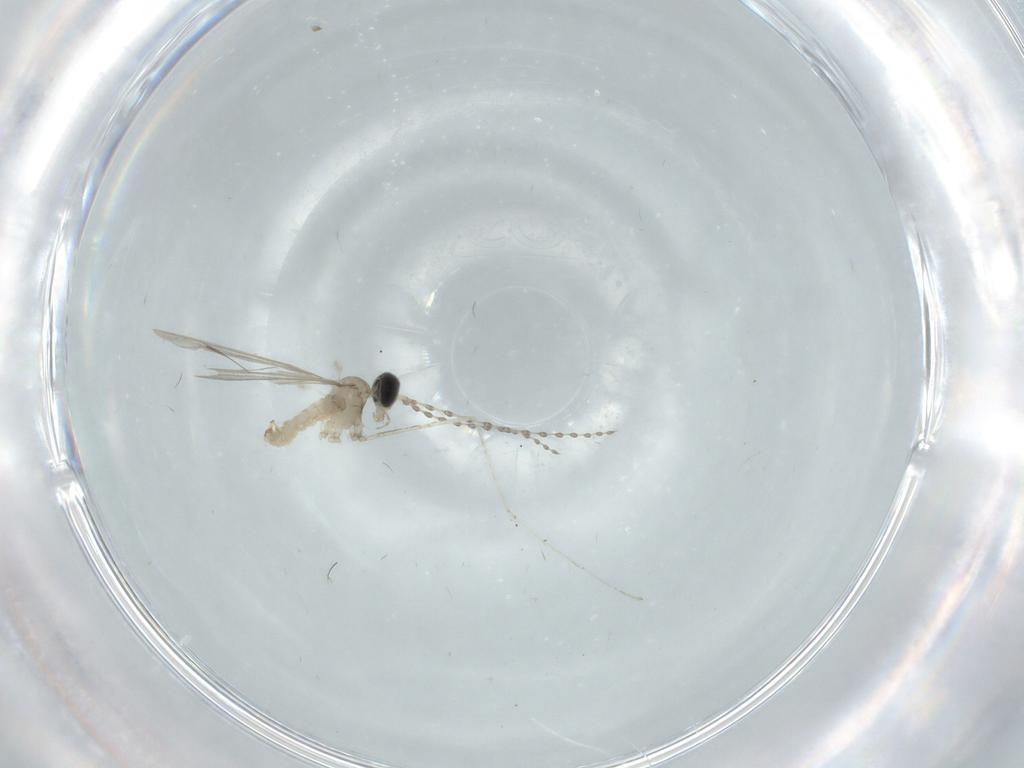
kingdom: Animalia
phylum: Arthropoda
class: Insecta
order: Diptera
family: Cecidomyiidae
